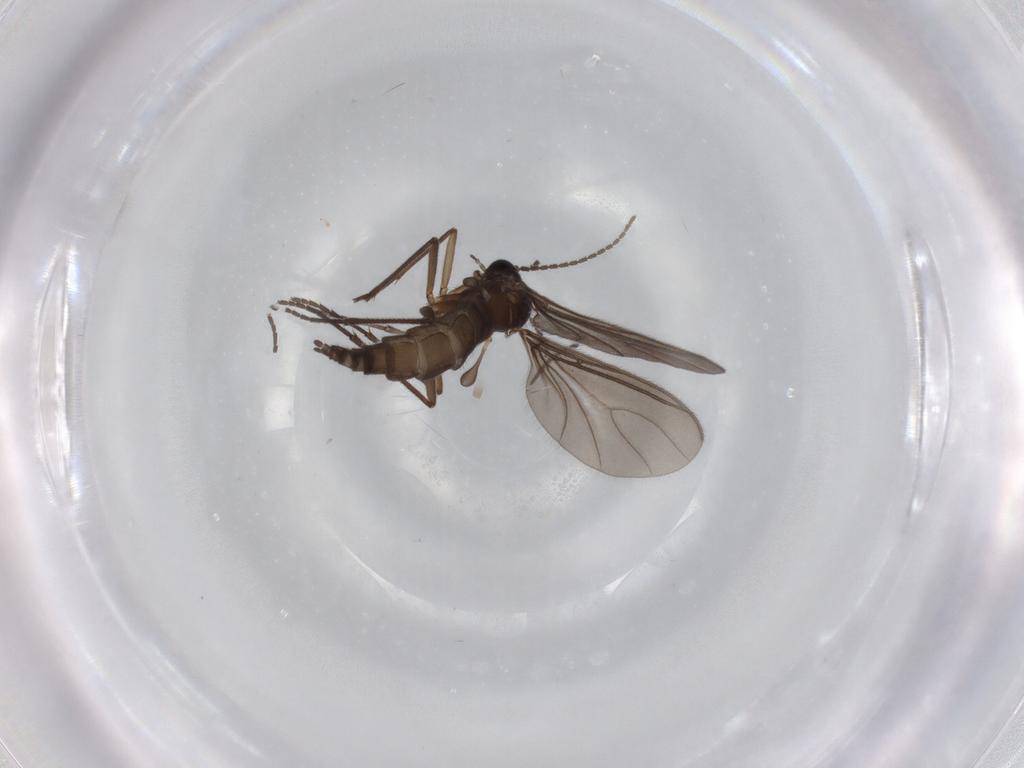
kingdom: Animalia
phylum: Arthropoda
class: Insecta
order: Diptera
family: Sciaridae
